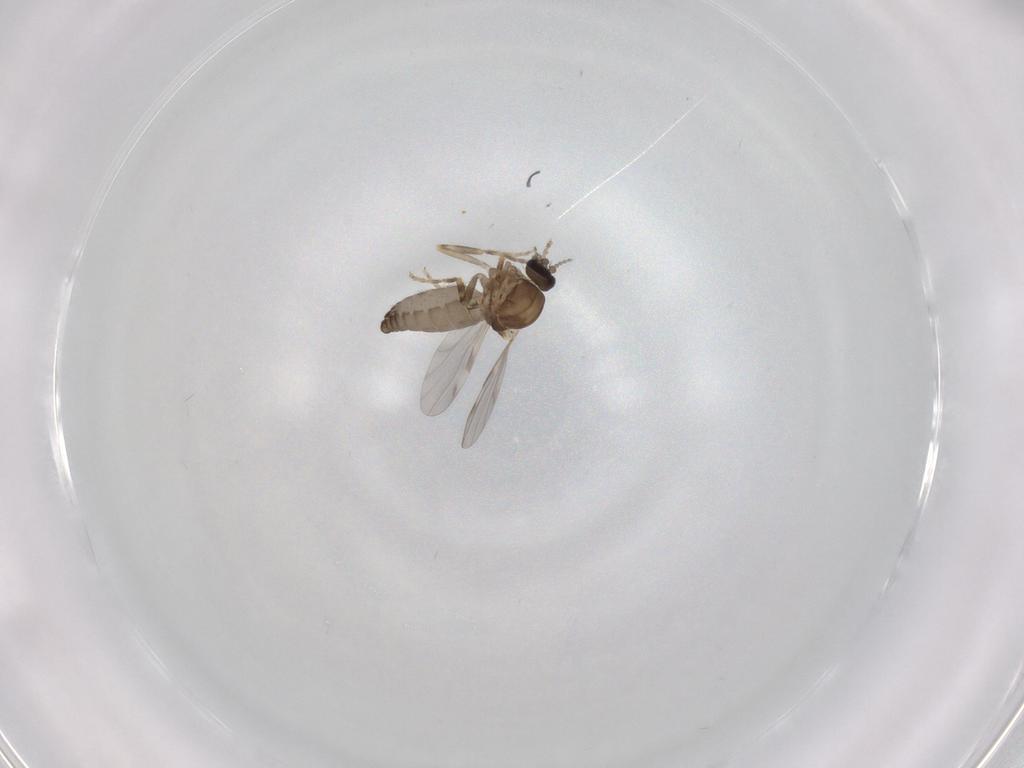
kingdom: Animalia
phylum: Arthropoda
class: Insecta
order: Diptera
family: Ceratopogonidae
